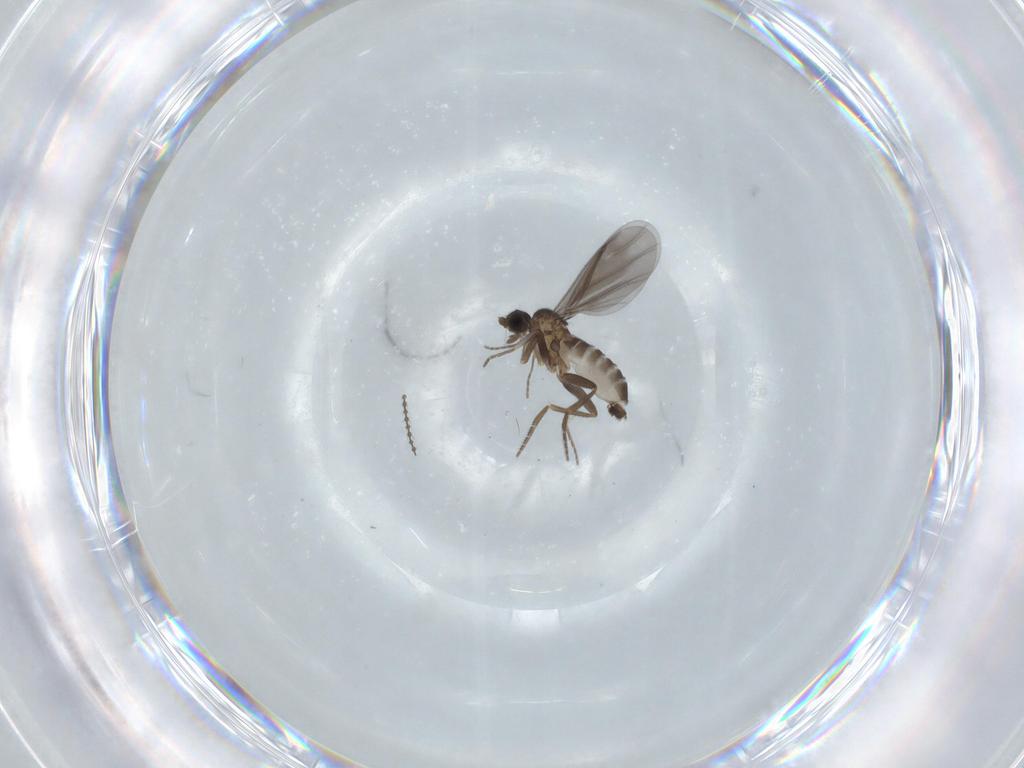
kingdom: Animalia
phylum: Arthropoda
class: Insecta
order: Diptera
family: Phoridae
